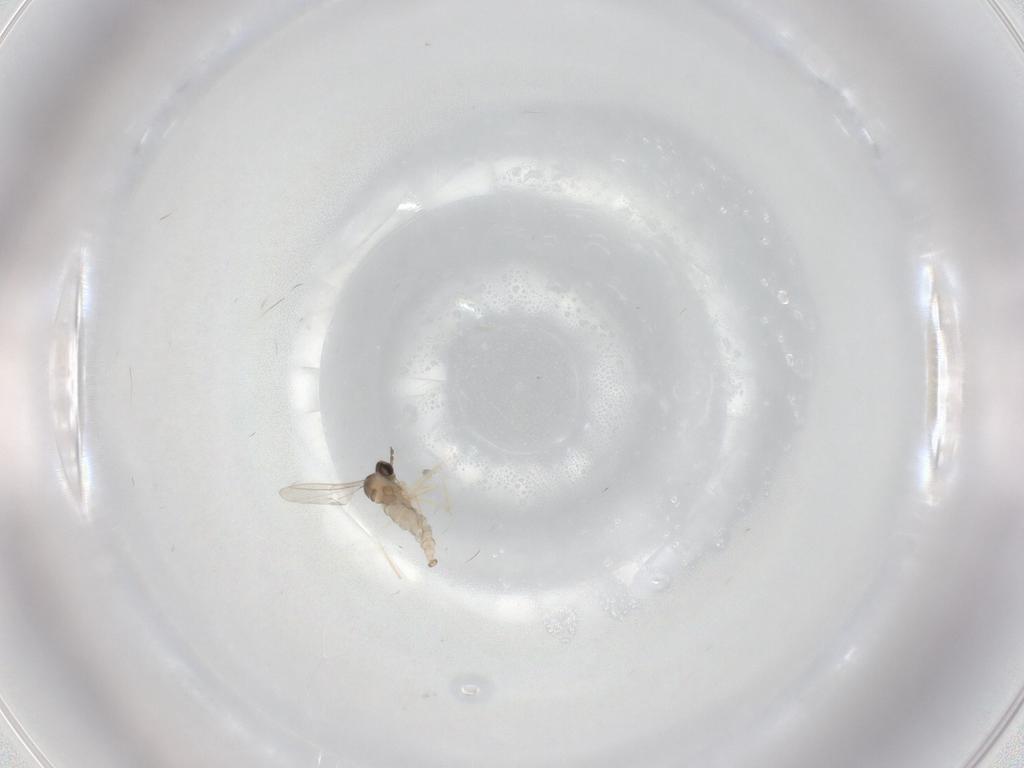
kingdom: Animalia
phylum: Arthropoda
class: Insecta
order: Diptera
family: Cecidomyiidae
